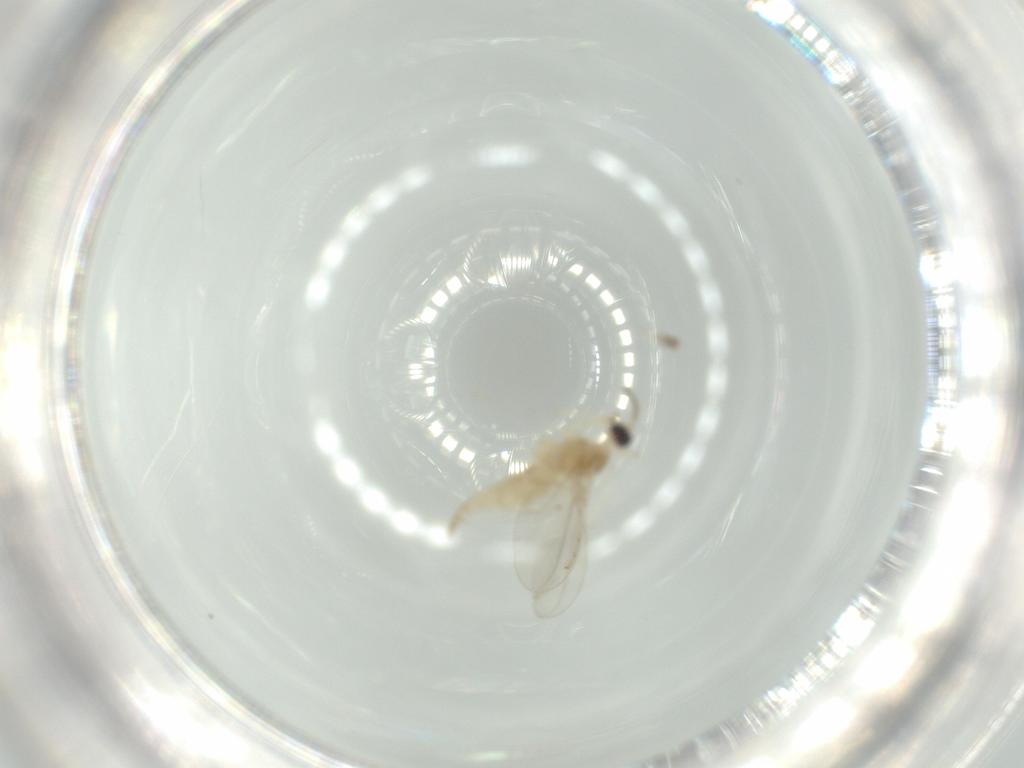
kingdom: Animalia
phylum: Arthropoda
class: Insecta
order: Diptera
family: Cecidomyiidae
